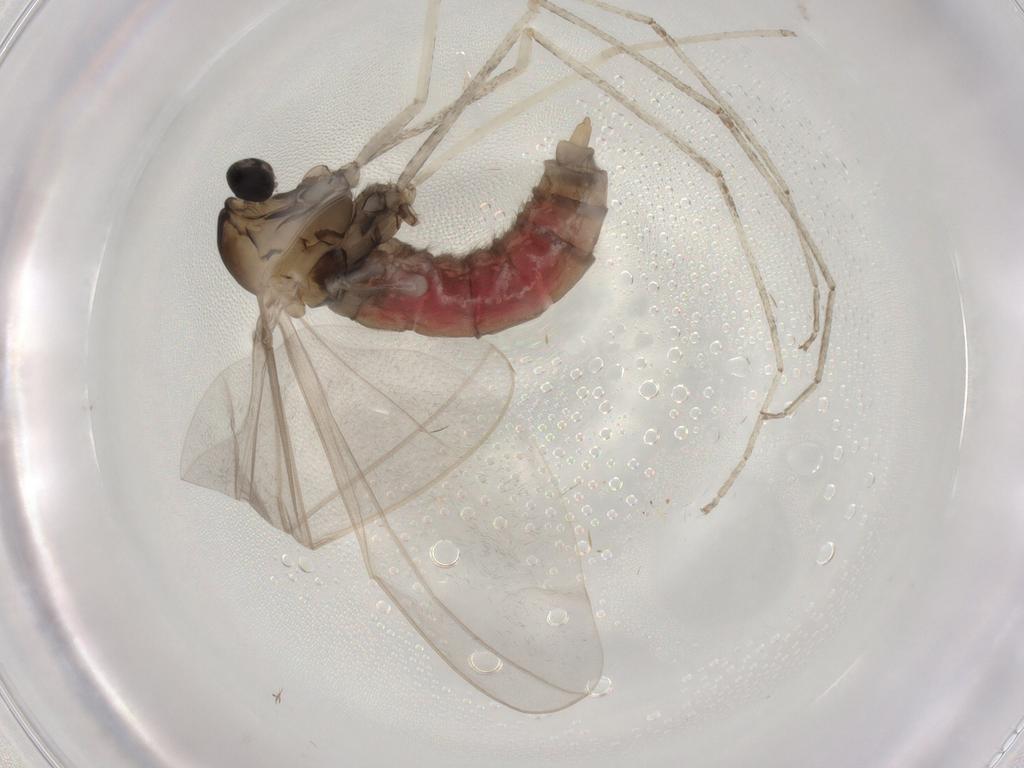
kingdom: Animalia
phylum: Arthropoda
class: Insecta
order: Diptera
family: Cecidomyiidae
